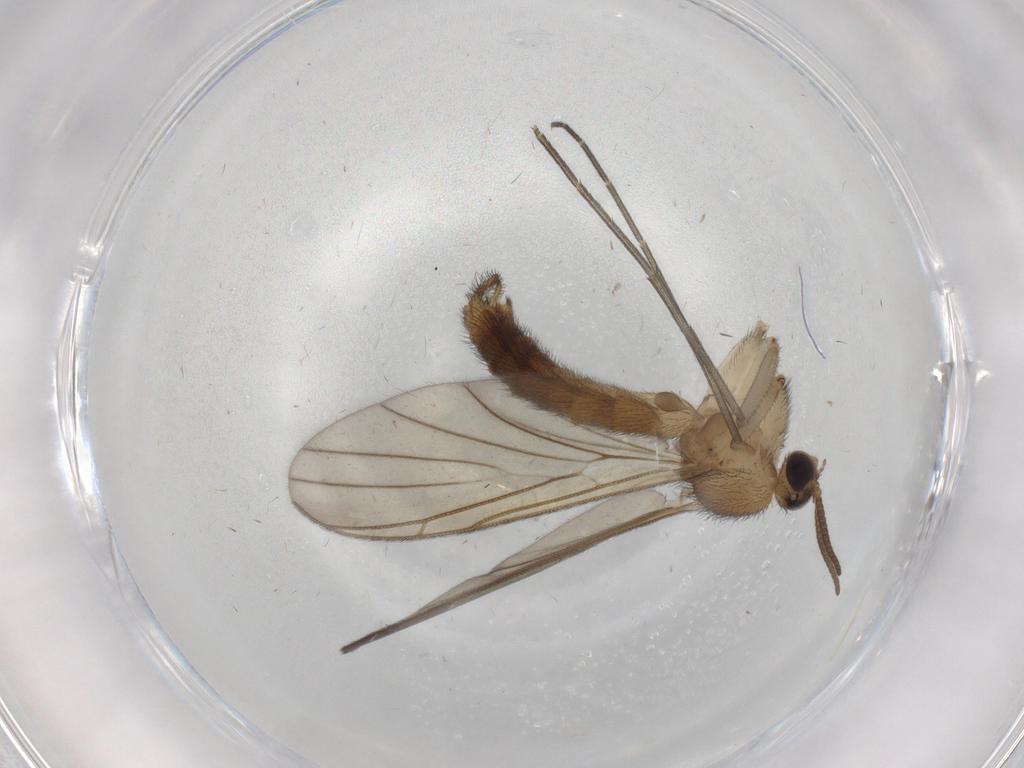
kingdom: Animalia
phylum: Arthropoda
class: Insecta
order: Diptera
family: Keroplatidae
